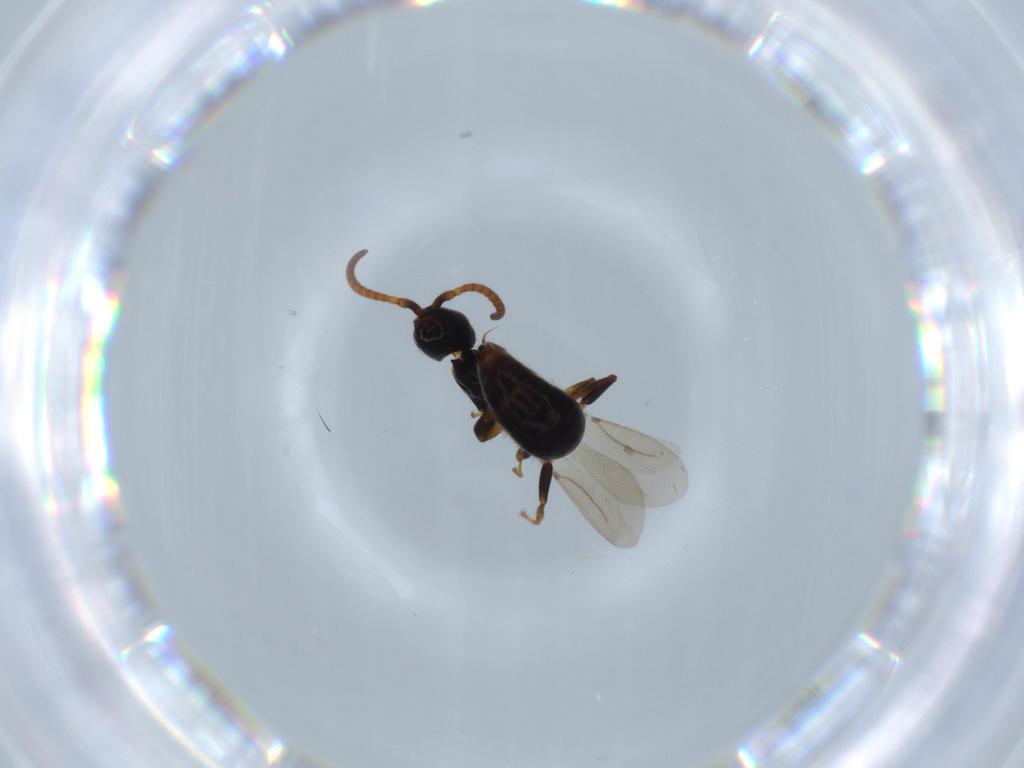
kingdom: Animalia
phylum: Arthropoda
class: Insecta
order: Hymenoptera
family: Bethylidae
